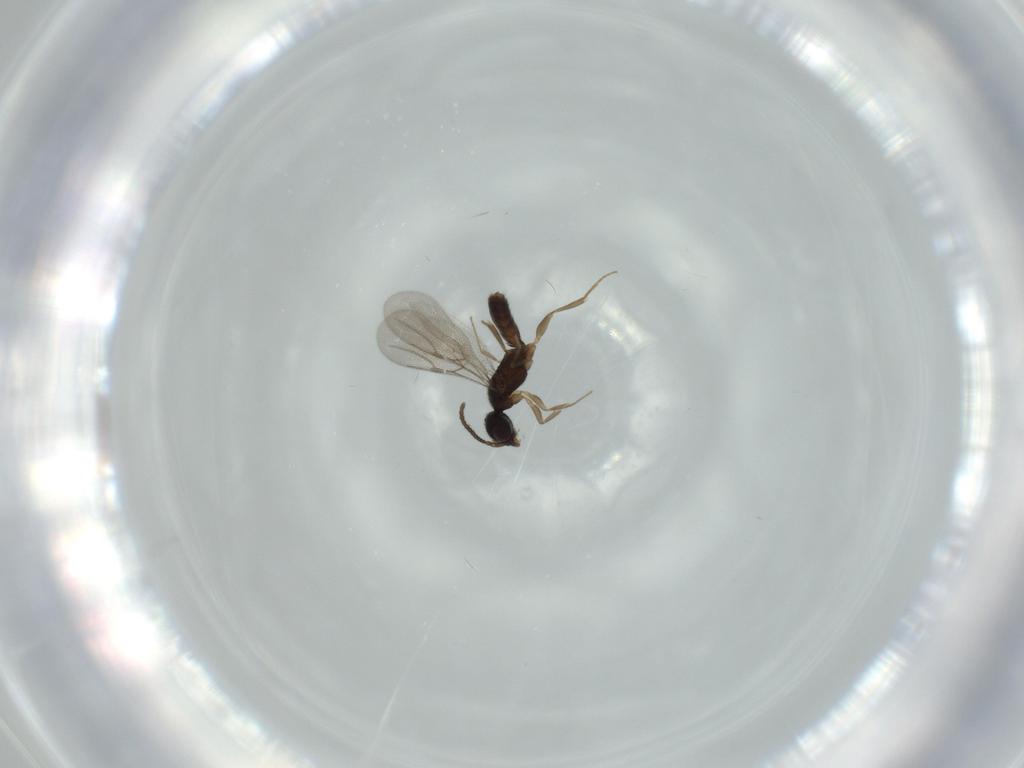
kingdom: Animalia
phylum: Arthropoda
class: Insecta
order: Hymenoptera
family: Bethylidae
